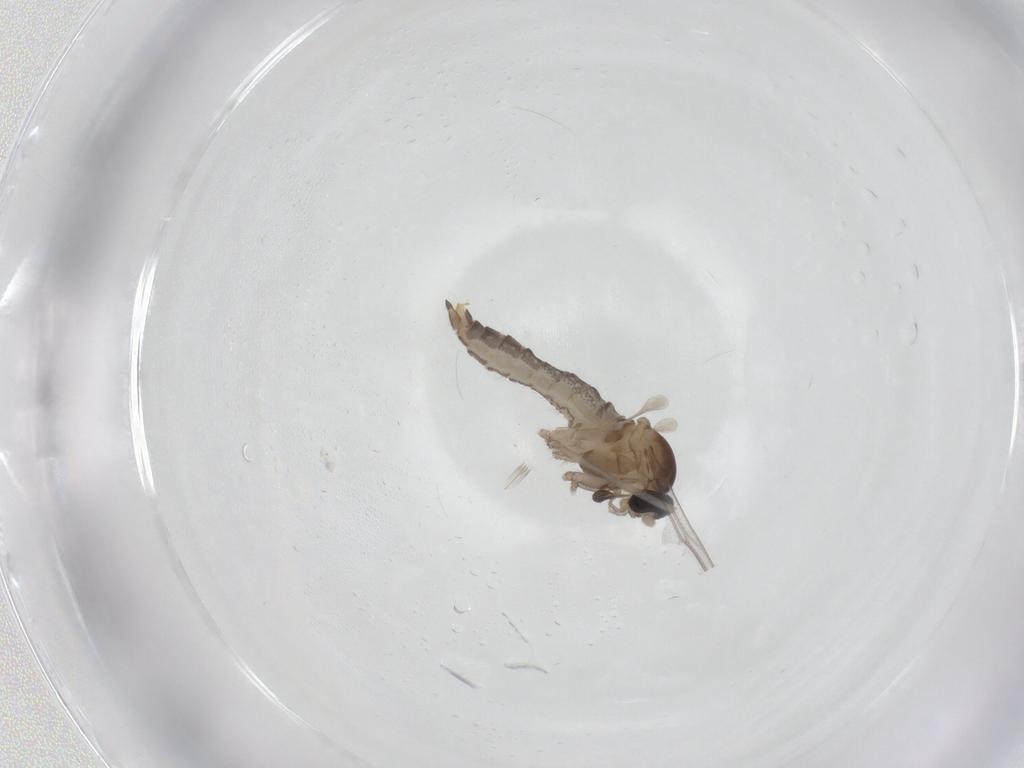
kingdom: Animalia
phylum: Arthropoda
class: Insecta
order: Diptera
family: Cecidomyiidae
